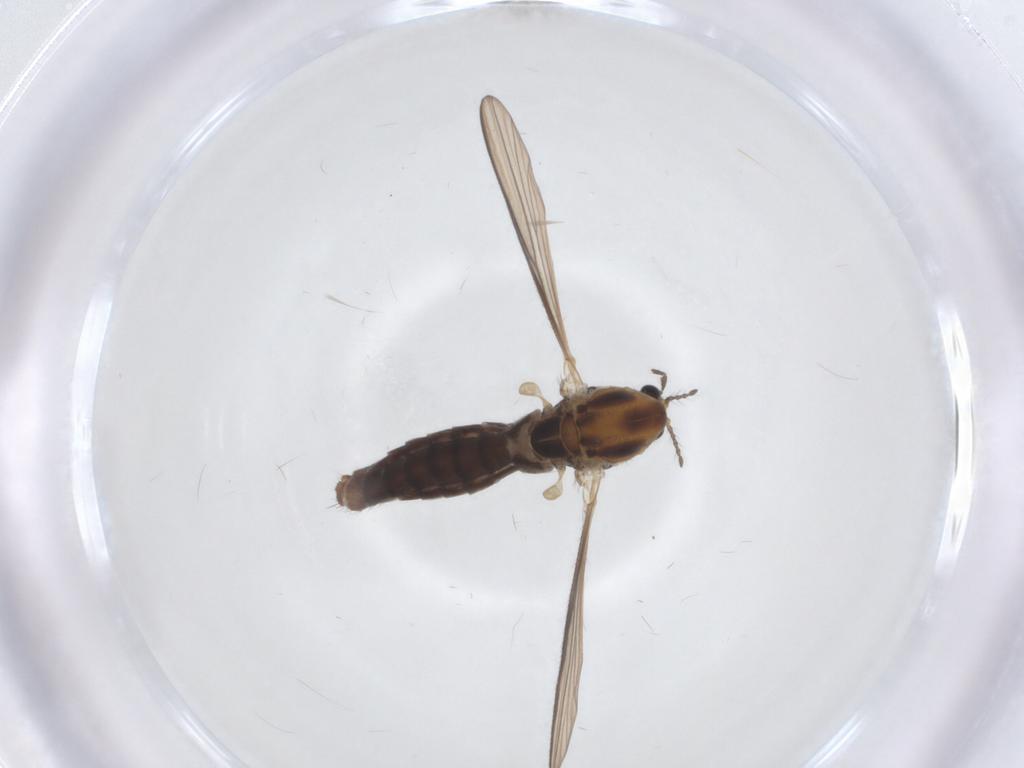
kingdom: Animalia
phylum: Arthropoda
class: Insecta
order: Diptera
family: Chironomidae
